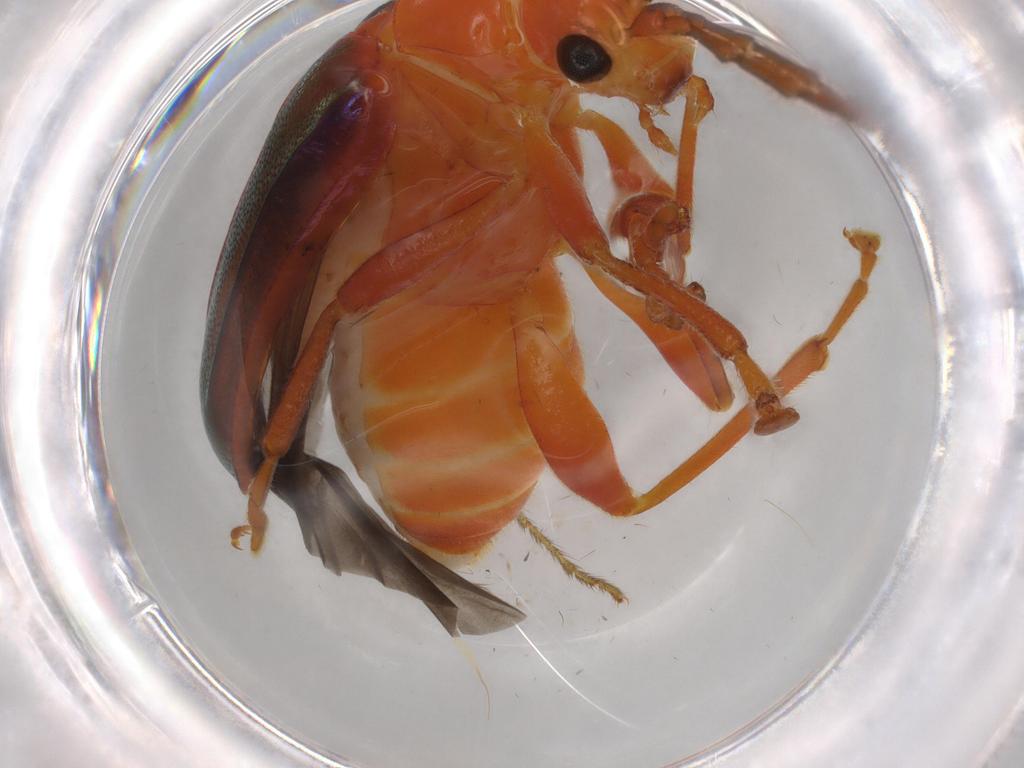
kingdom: Animalia
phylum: Arthropoda
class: Insecta
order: Coleoptera
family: Chrysomelidae
